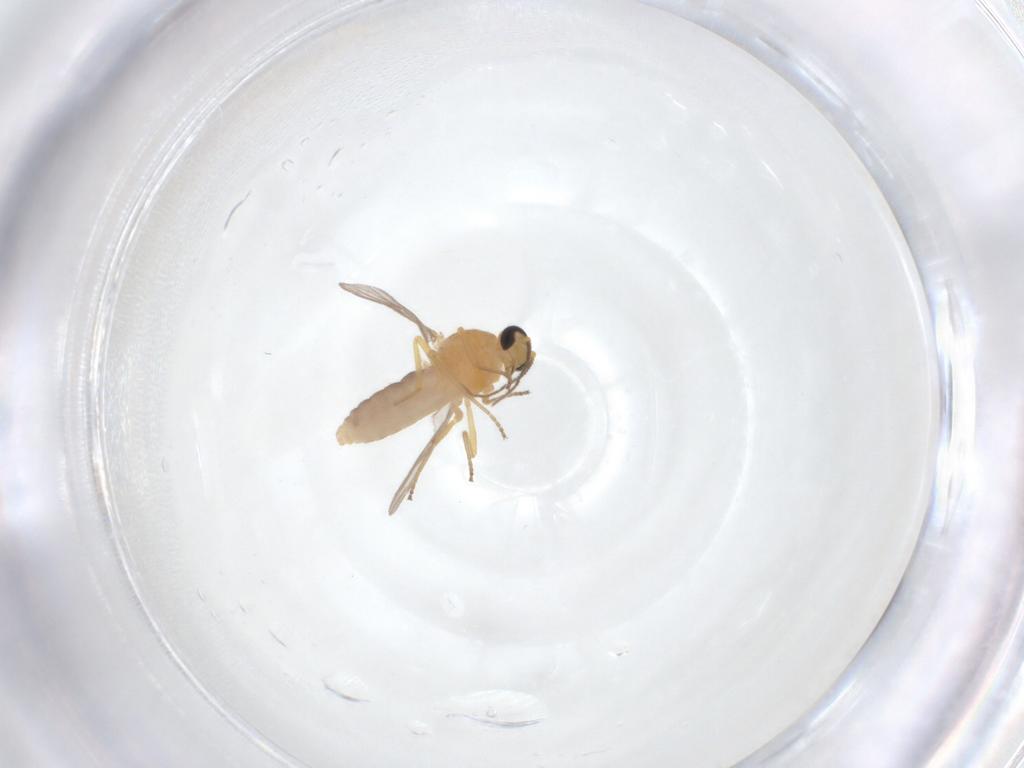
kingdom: Animalia
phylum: Arthropoda
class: Insecta
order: Diptera
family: Ceratopogonidae
